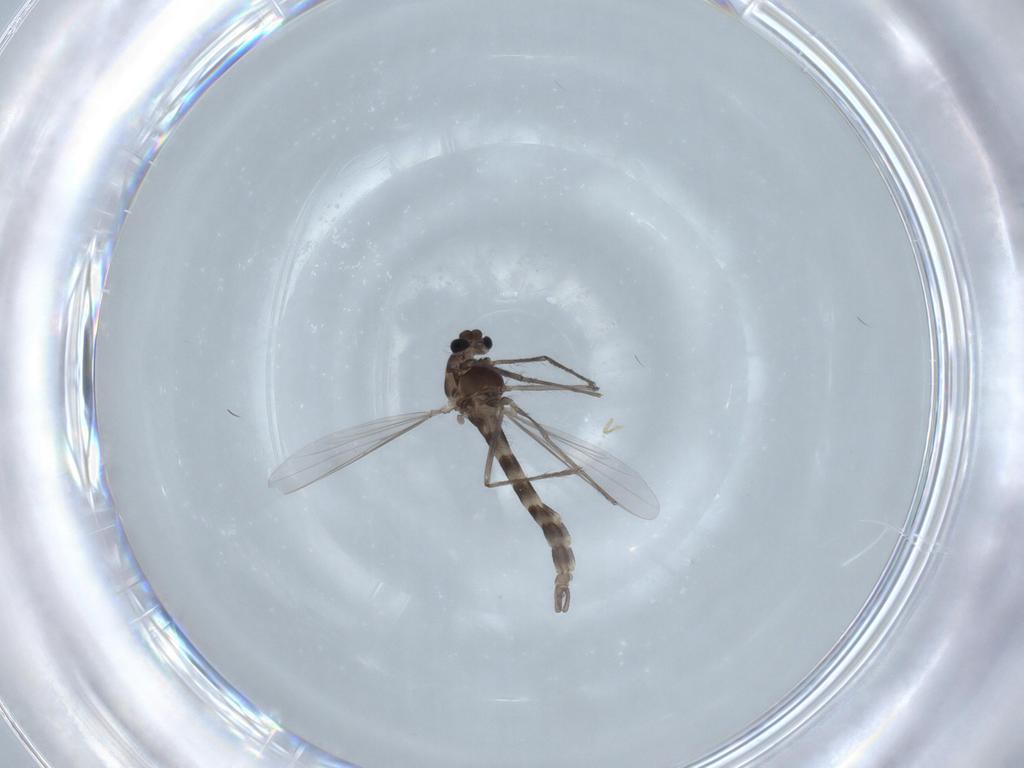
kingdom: Animalia
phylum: Arthropoda
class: Insecta
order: Diptera
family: Chironomidae
